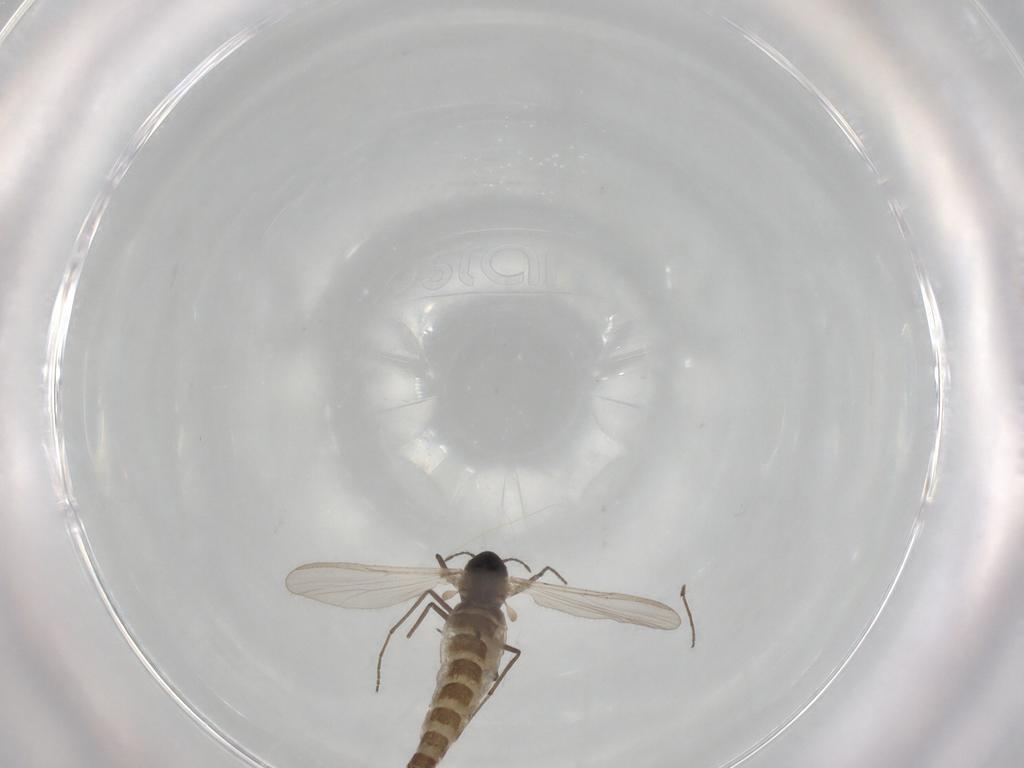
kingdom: Animalia
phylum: Arthropoda
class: Insecta
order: Diptera
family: Chironomidae
